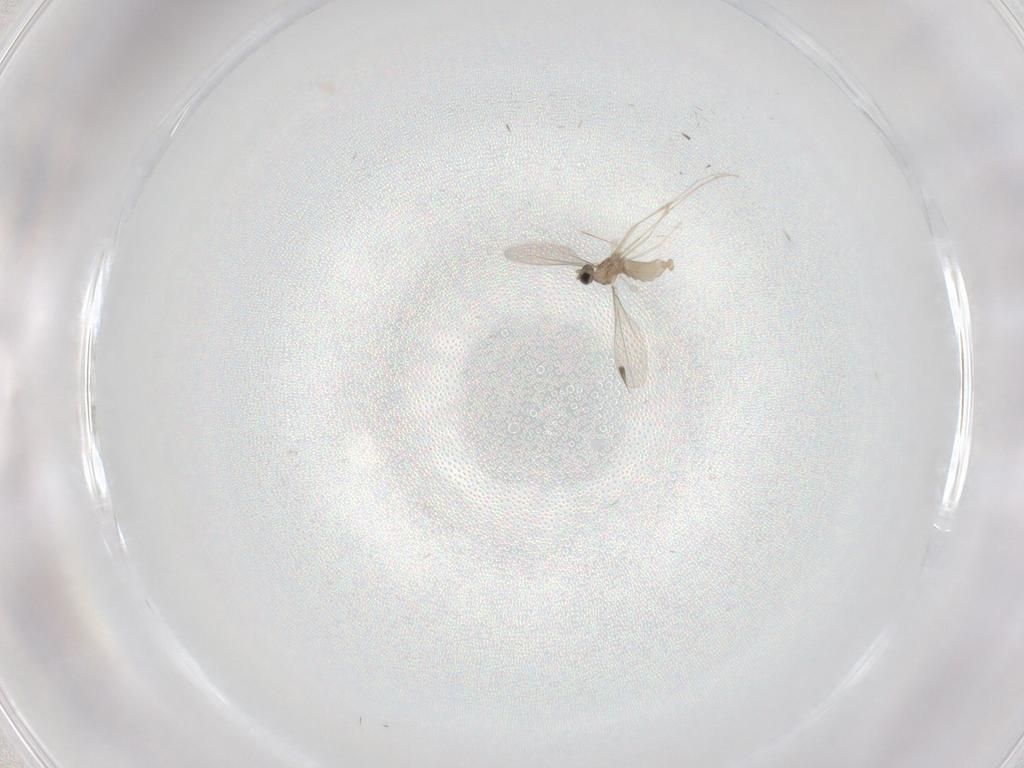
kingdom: Animalia
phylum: Arthropoda
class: Insecta
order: Diptera
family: Cecidomyiidae
